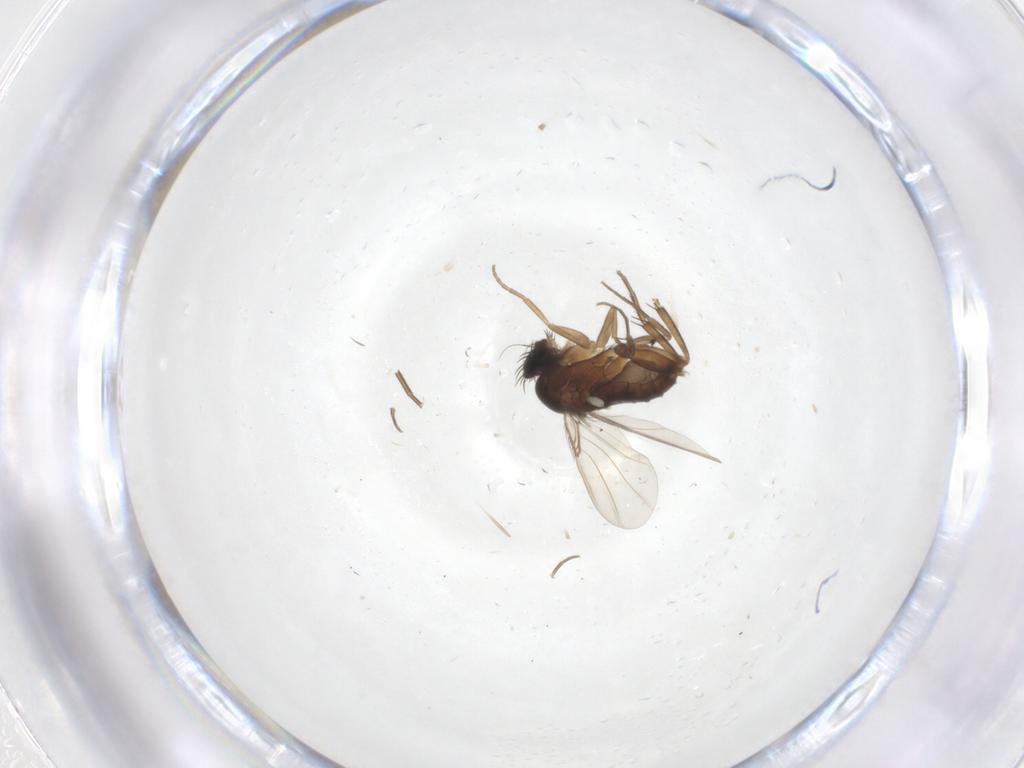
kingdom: Animalia
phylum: Arthropoda
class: Insecta
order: Diptera
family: Phoridae
